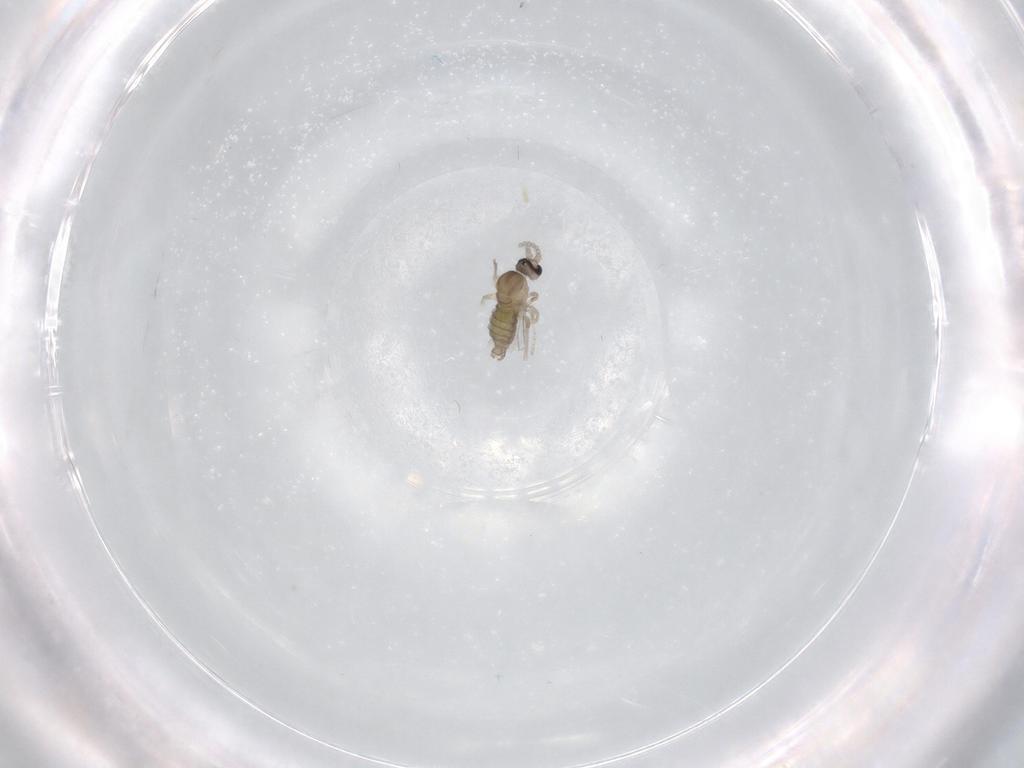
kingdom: Animalia
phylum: Arthropoda
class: Insecta
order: Diptera
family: Cecidomyiidae
